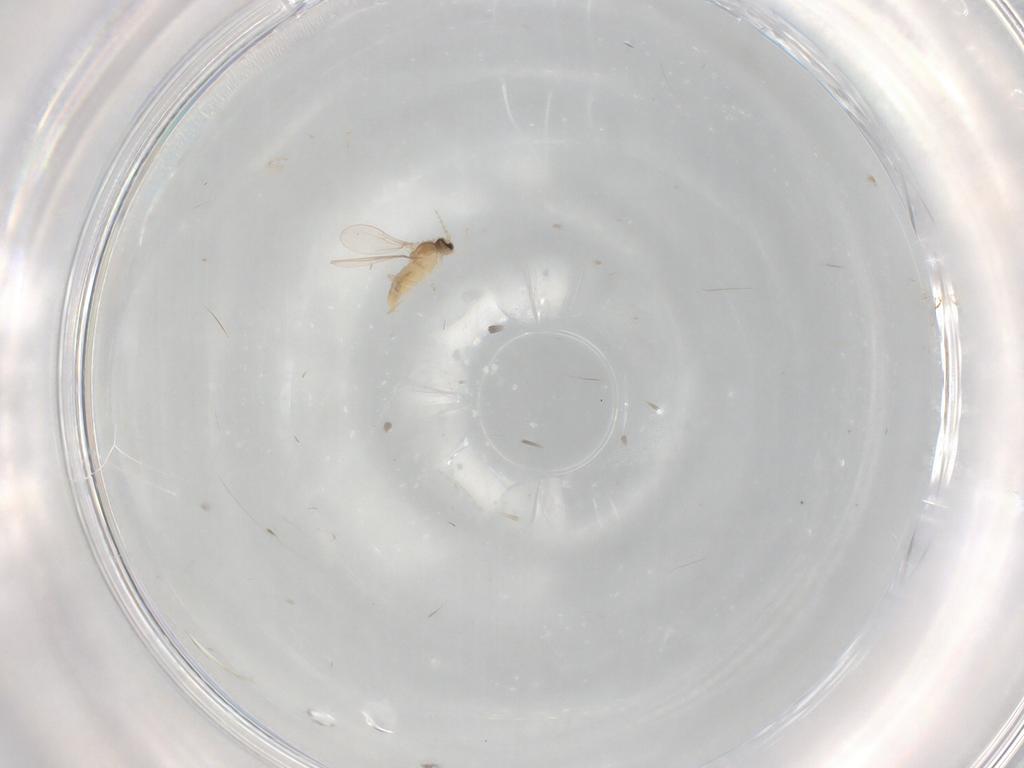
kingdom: Animalia
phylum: Arthropoda
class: Insecta
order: Diptera
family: Cecidomyiidae
